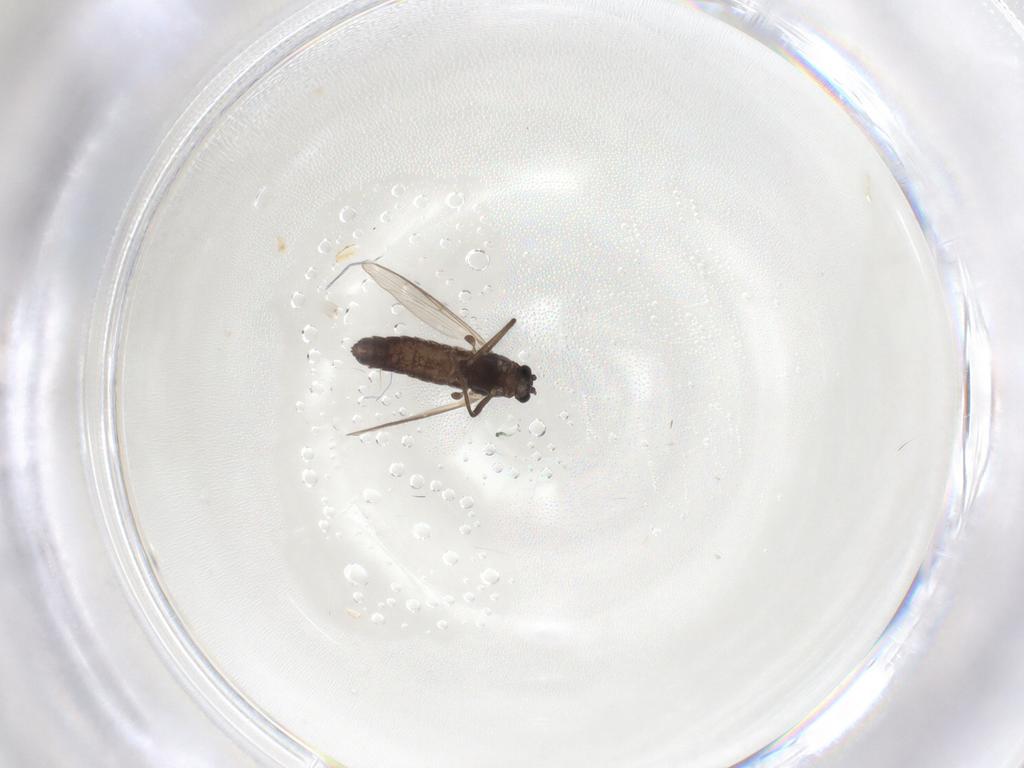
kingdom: Animalia
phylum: Arthropoda
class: Insecta
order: Diptera
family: Chironomidae
